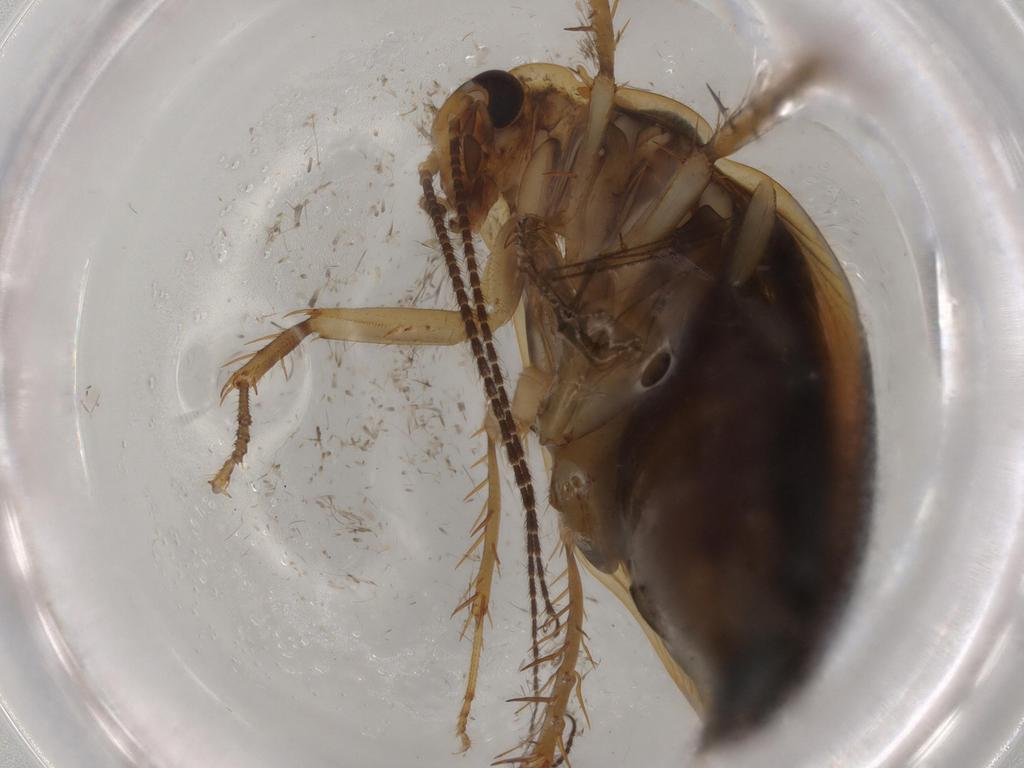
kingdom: Animalia
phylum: Arthropoda
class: Insecta
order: Blattodea
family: Ectobiidae
